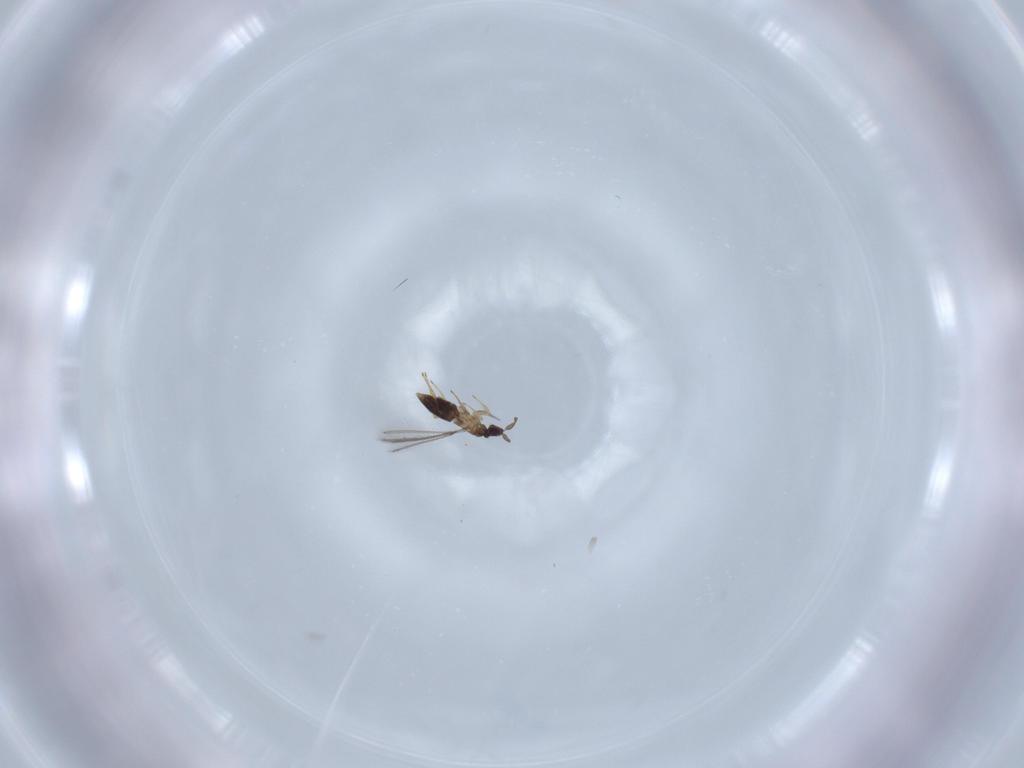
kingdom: Animalia
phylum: Arthropoda
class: Insecta
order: Hymenoptera
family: Mymaridae
